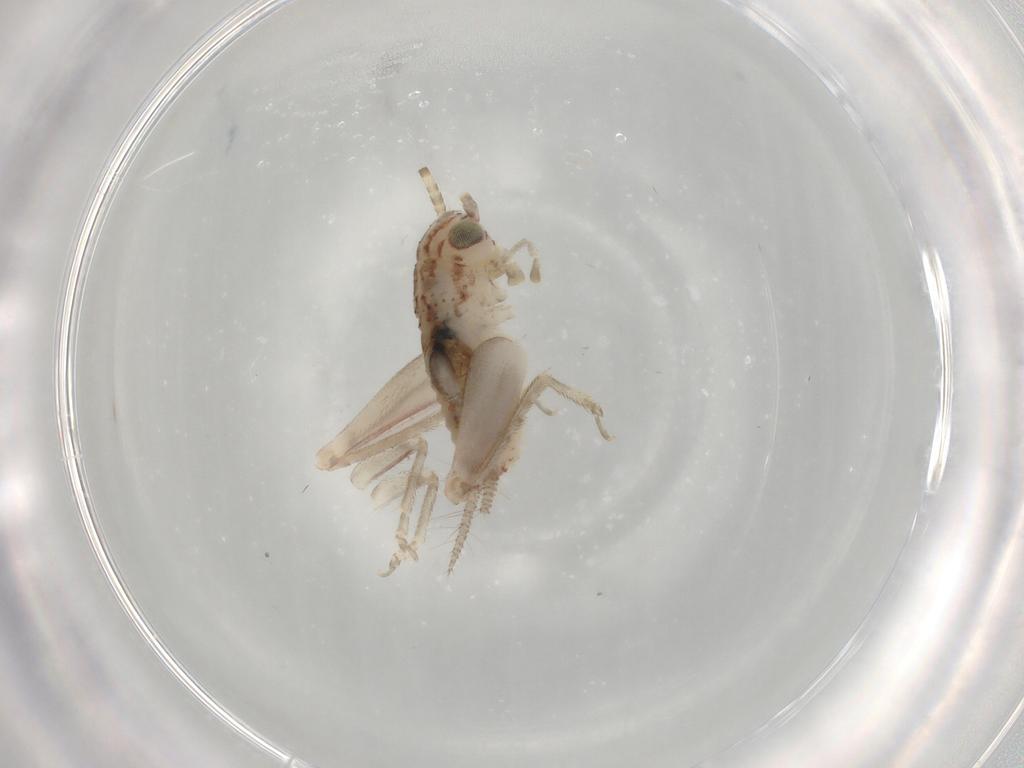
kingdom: Animalia
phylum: Arthropoda
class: Insecta
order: Orthoptera
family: Trigonidiidae
